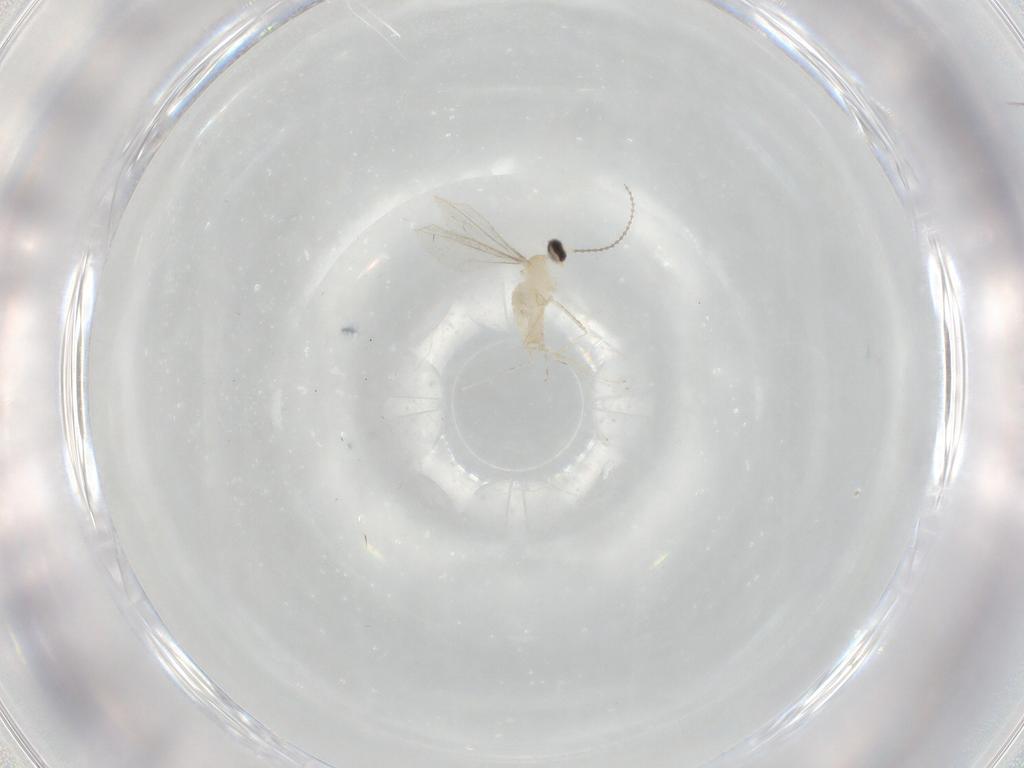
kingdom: Animalia
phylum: Arthropoda
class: Insecta
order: Diptera
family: Cecidomyiidae
